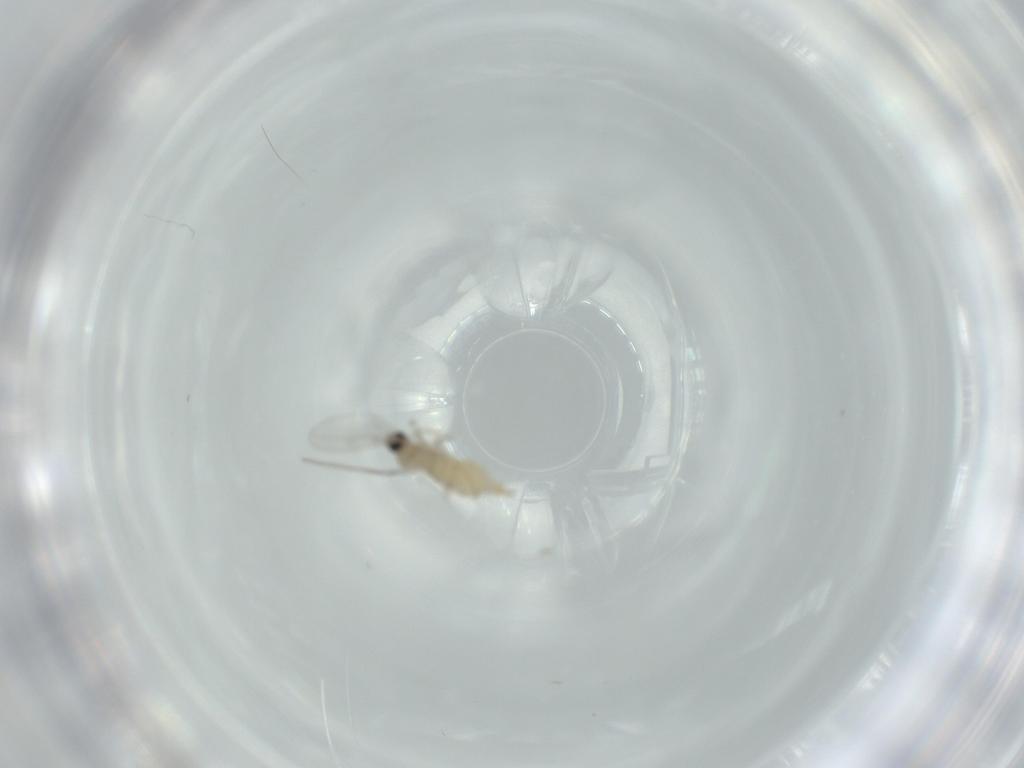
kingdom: Animalia
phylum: Arthropoda
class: Insecta
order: Diptera
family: Cecidomyiidae
